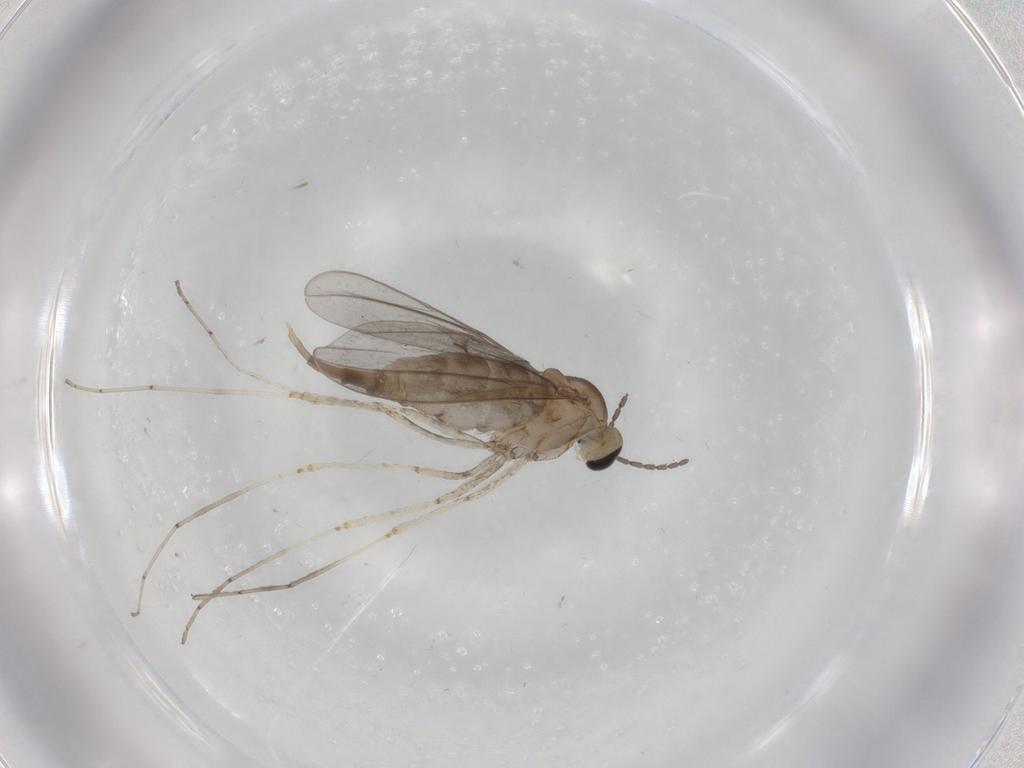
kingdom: Animalia
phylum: Arthropoda
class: Insecta
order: Diptera
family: Cecidomyiidae
